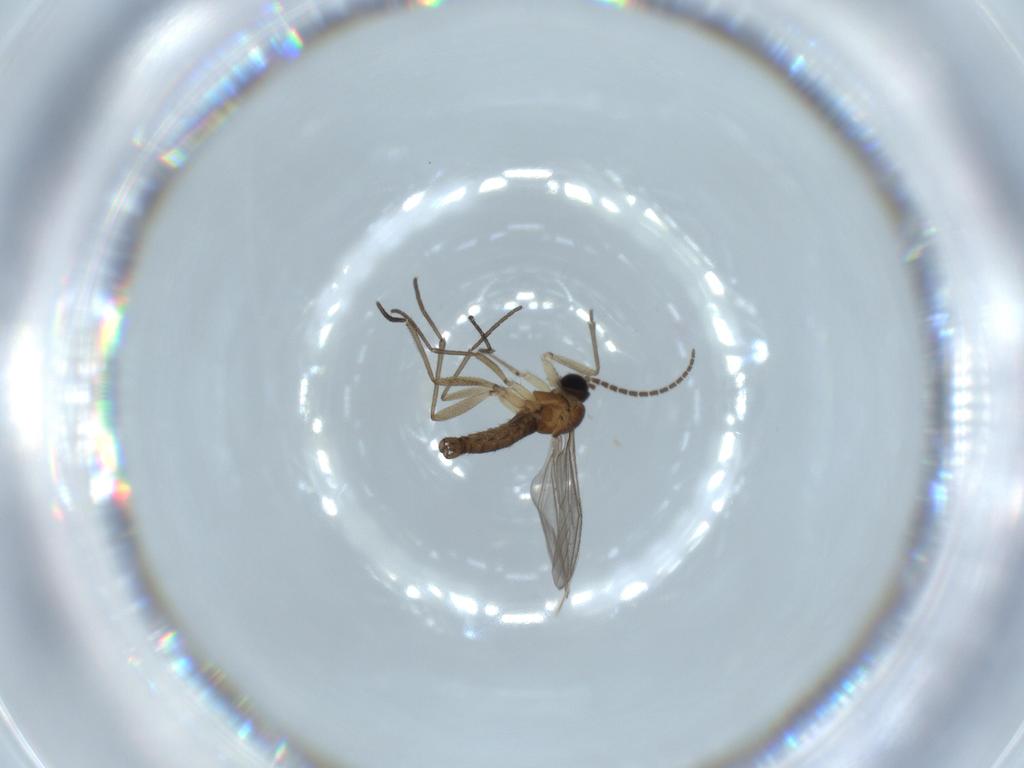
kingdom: Animalia
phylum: Arthropoda
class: Insecta
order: Diptera
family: Sciaridae
